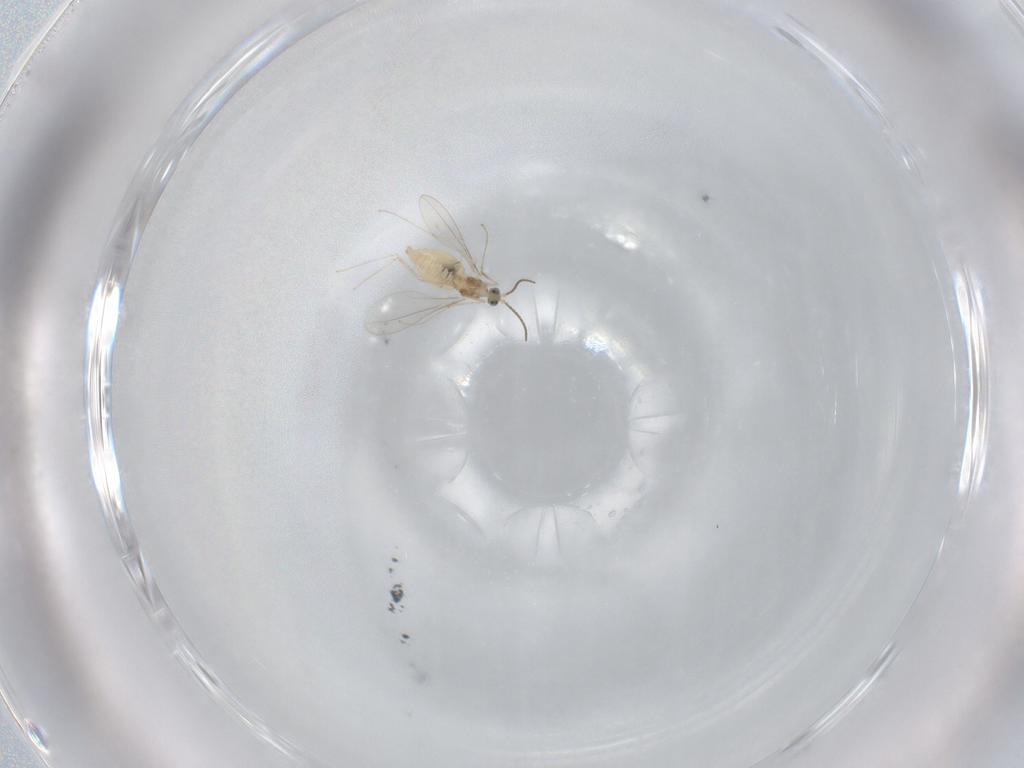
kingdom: Animalia
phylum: Arthropoda
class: Insecta
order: Diptera
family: Cecidomyiidae
